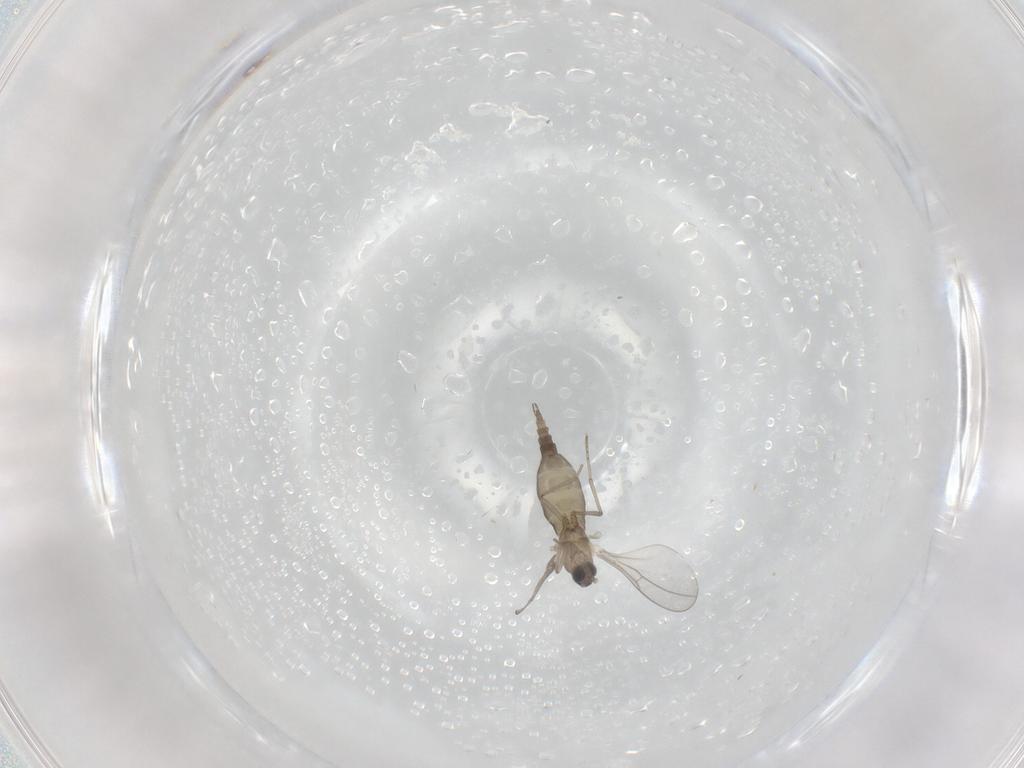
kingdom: Animalia
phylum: Arthropoda
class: Insecta
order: Diptera
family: Cecidomyiidae
